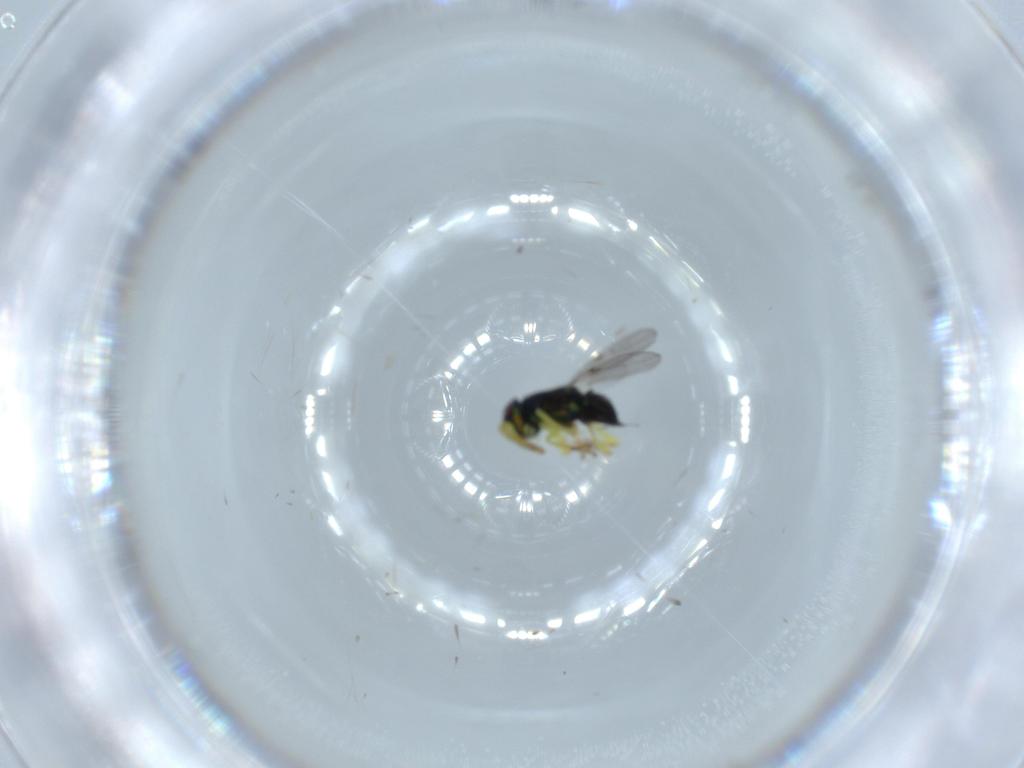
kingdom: Animalia
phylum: Arthropoda
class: Insecta
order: Hymenoptera
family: Encyrtidae
